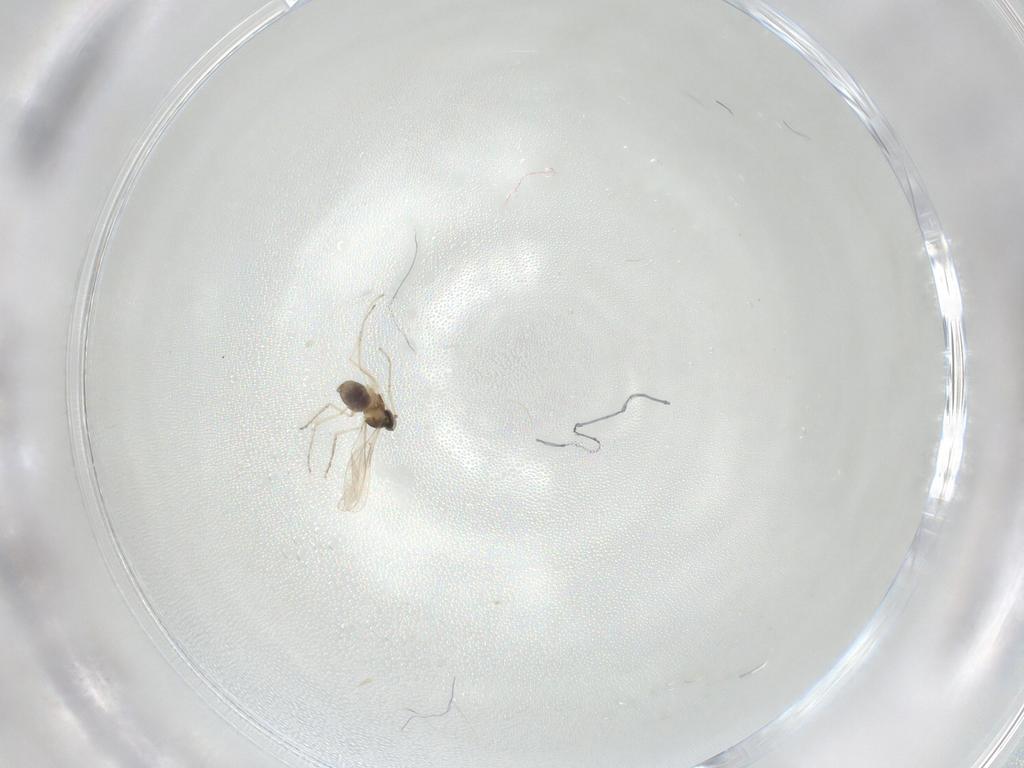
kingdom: Animalia
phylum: Arthropoda
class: Insecta
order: Diptera
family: Cecidomyiidae
